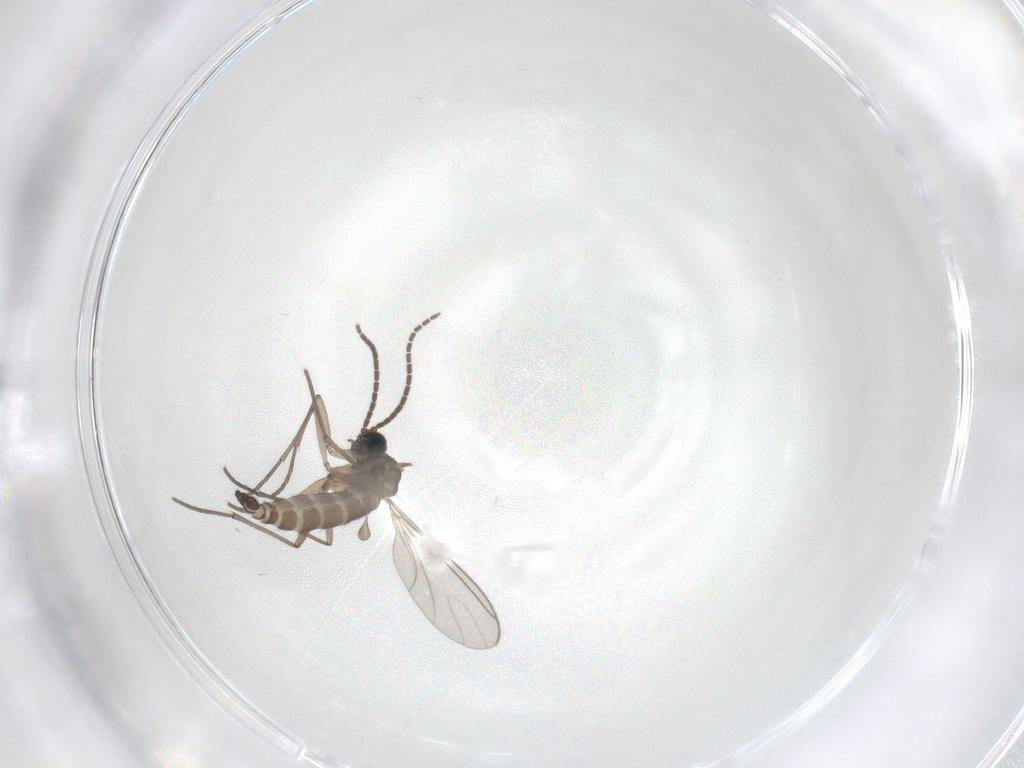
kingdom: Animalia
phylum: Arthropoda
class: Insecta
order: Diptera
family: Sciaridae
